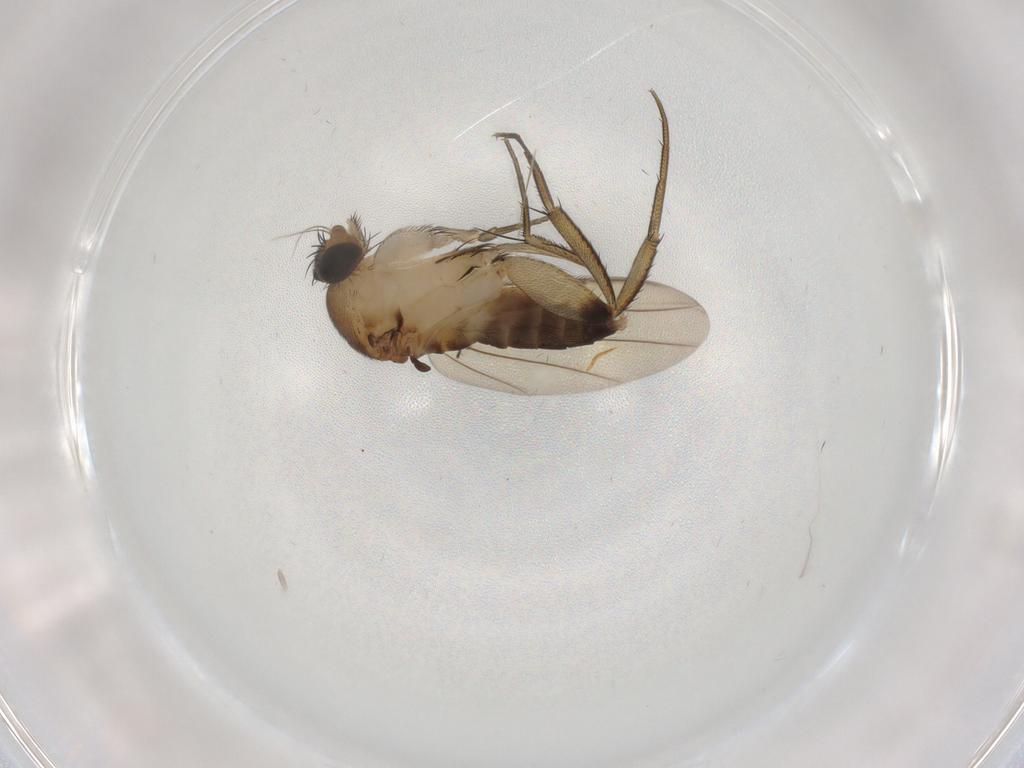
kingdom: Animalia
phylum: Arthropoda
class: Insecta
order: Diptera
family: Phoridae
